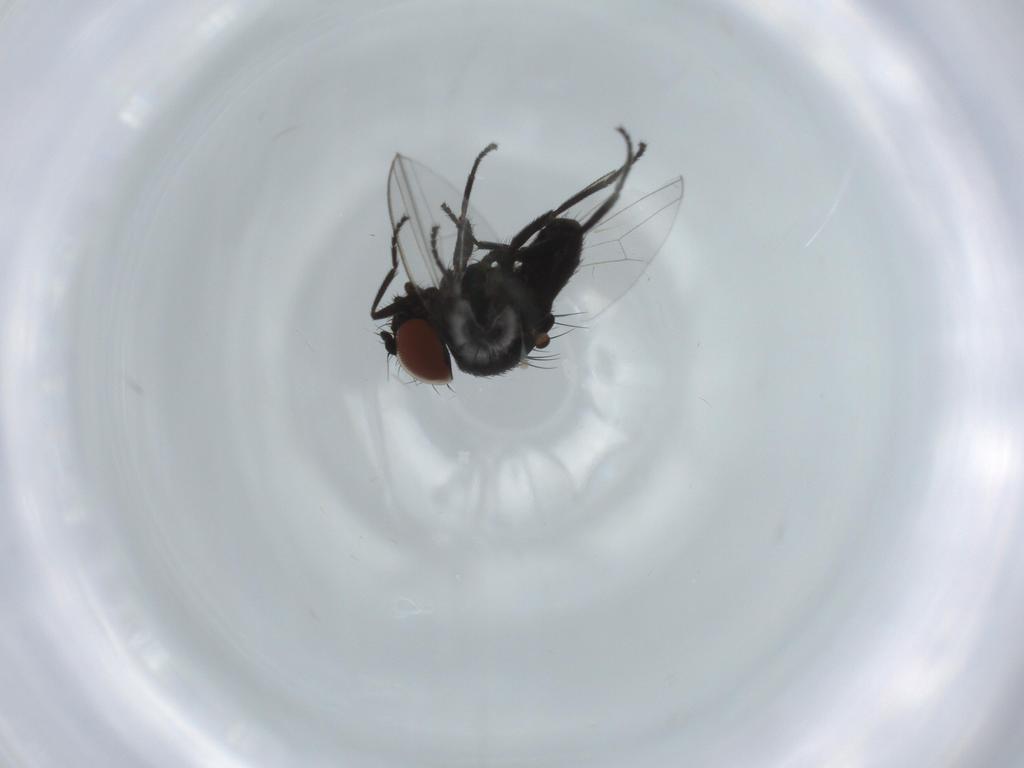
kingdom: Animalia
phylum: Arthropoda
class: Insecta
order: Diptera
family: Milichiidae
